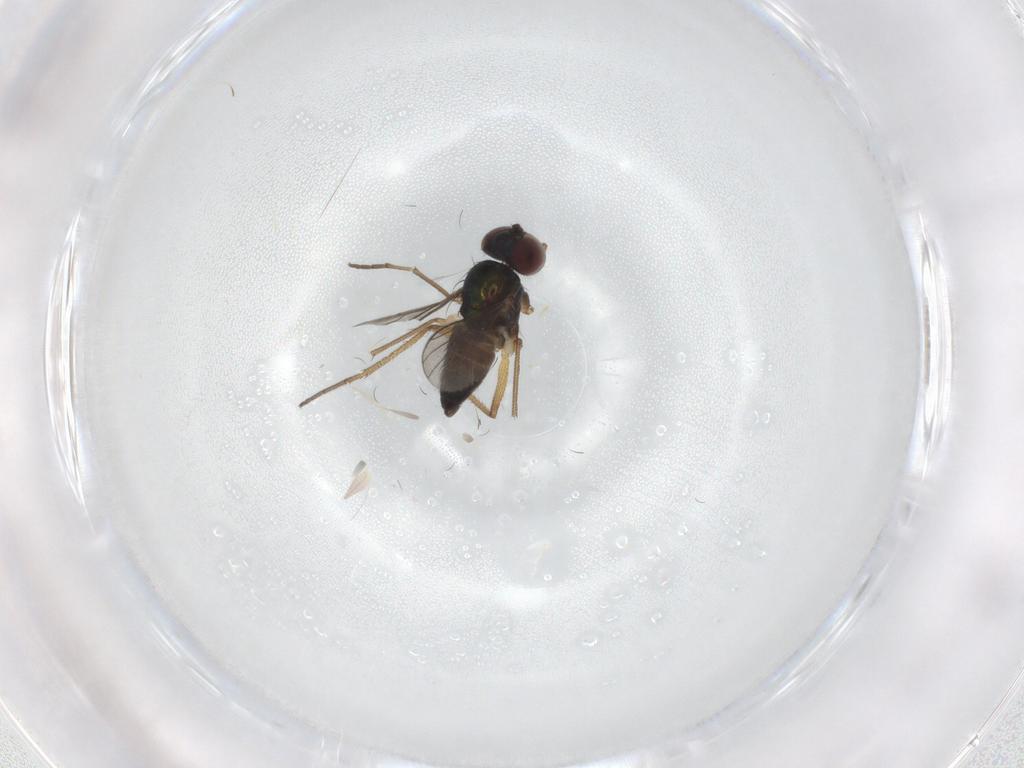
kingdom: Animalia
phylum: Arthropoda
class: Insecta
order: Diptera
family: Dolichopodidae
